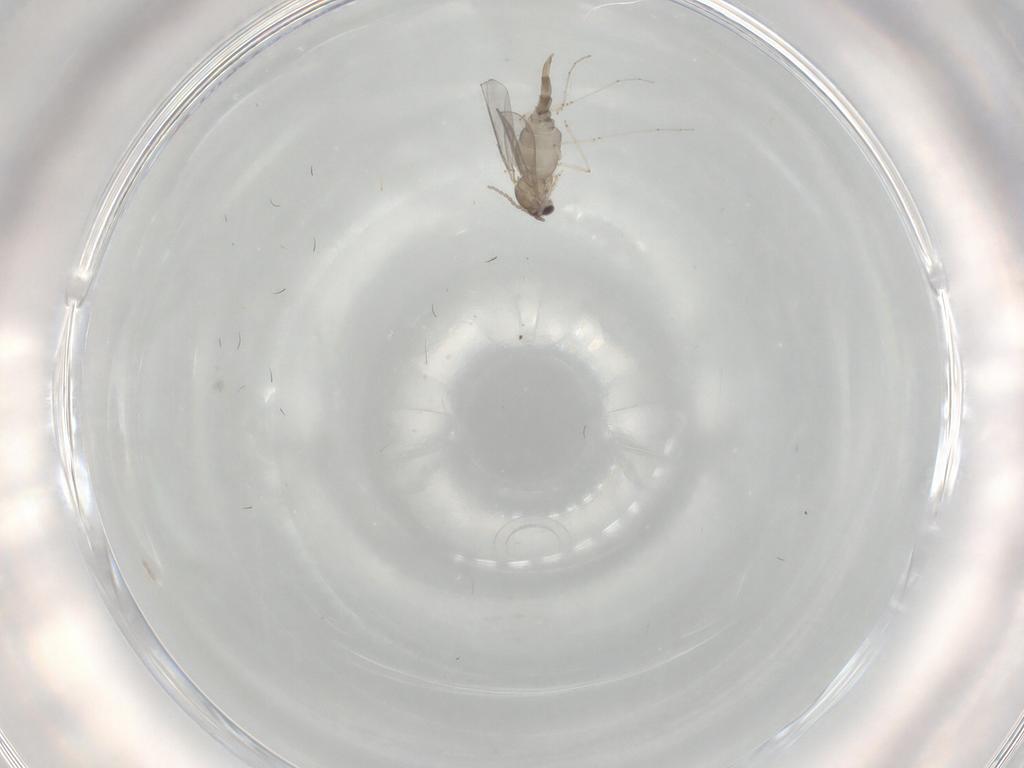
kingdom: Animalia
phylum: Arthropoda
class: Insecta
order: Diptera
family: Cecidomyiidae
